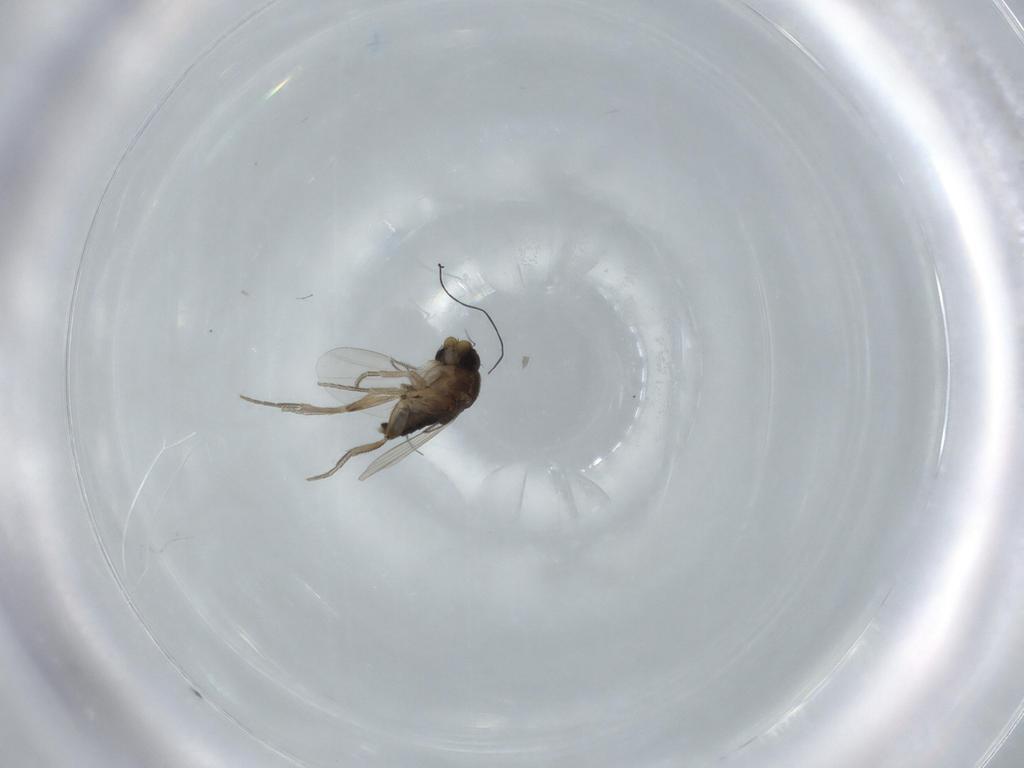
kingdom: Animalia
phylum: Arthropoda
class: Insecta
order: Diptera
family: Phoridae
